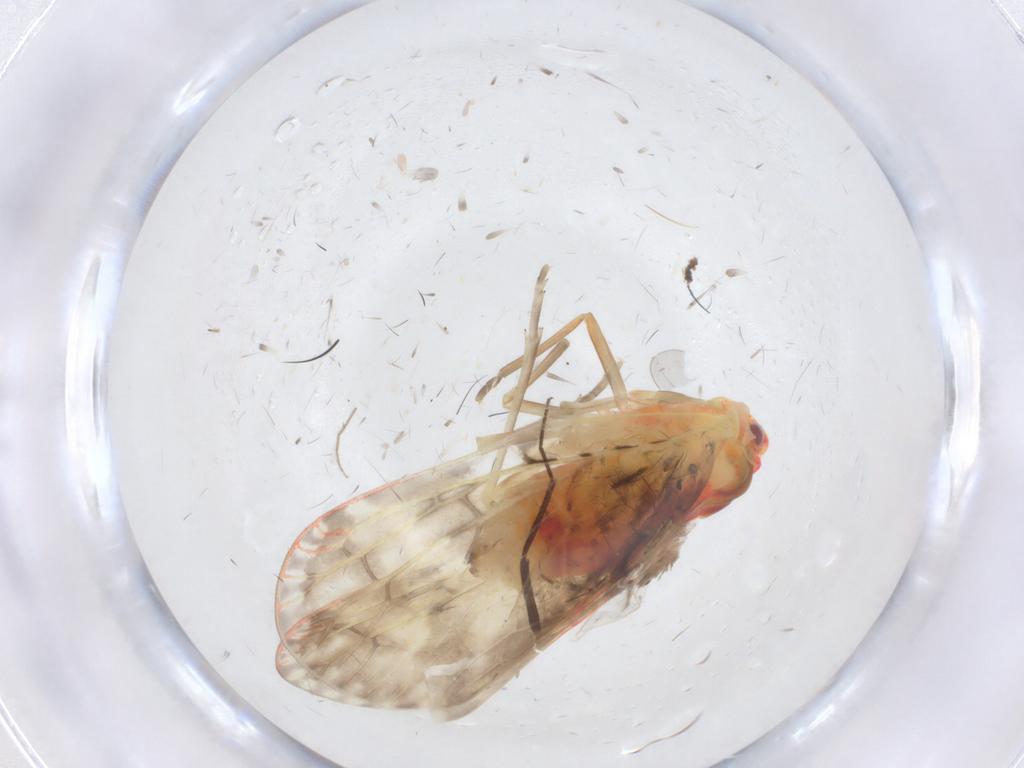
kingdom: Animalia
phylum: Arthropoda
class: Insecta
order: Hemiptera
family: Derbidae
